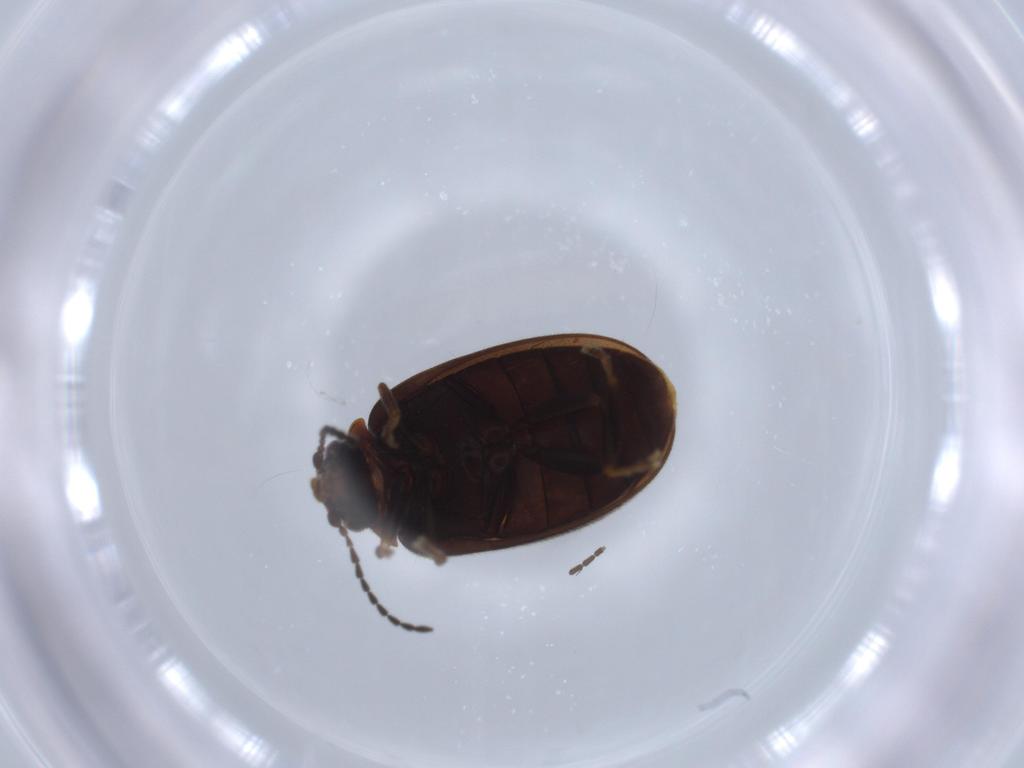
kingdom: Animalia
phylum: Arthropoda
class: Insecta
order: Coleoptera
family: Scirtidae
